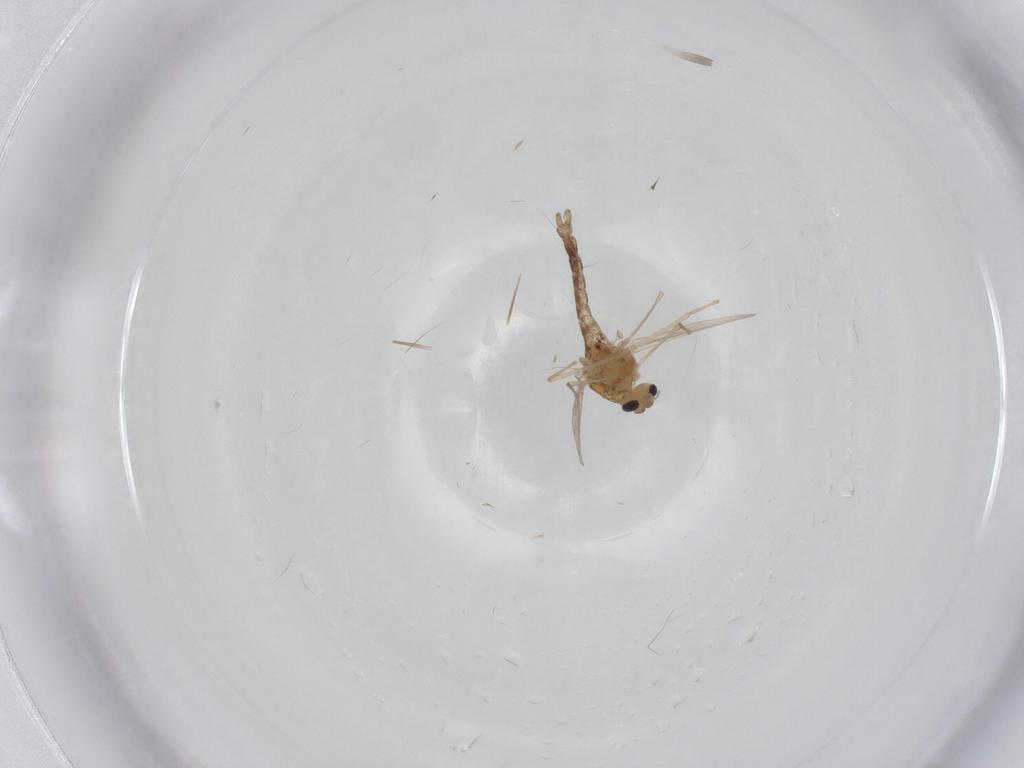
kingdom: Animalia
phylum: Arthropoda
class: Insecta
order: Diptera
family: Chironomidae
